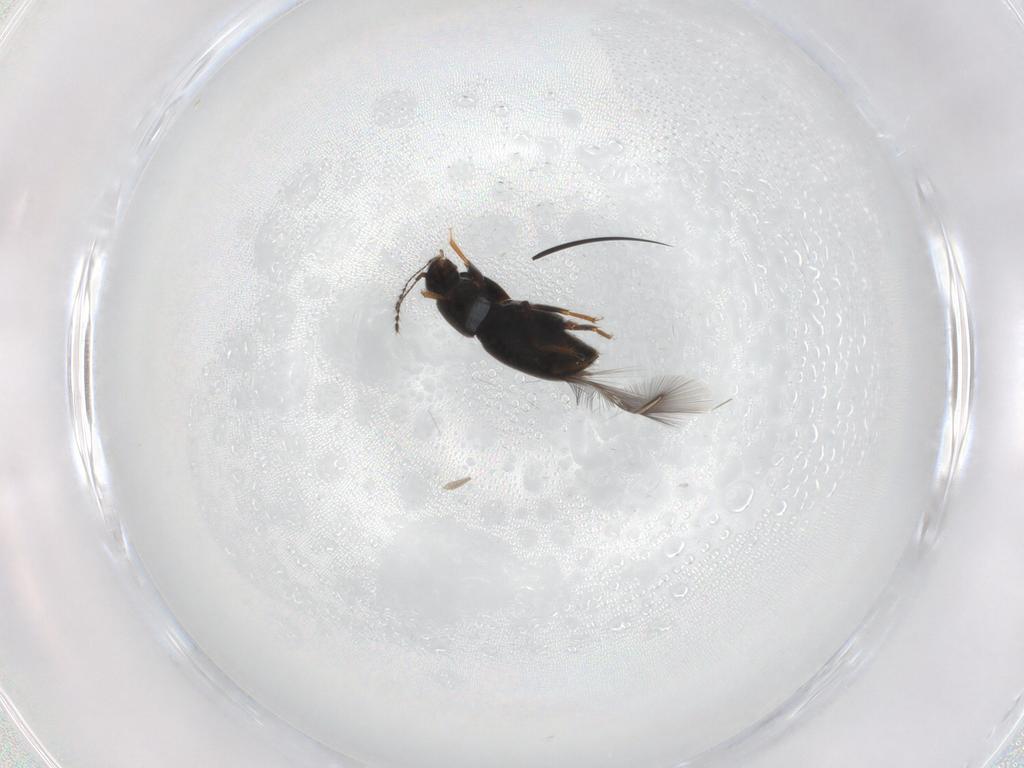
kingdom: Animalia
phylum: Arthropoda
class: Insecta
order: Coleoptera
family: Ptiliidae
